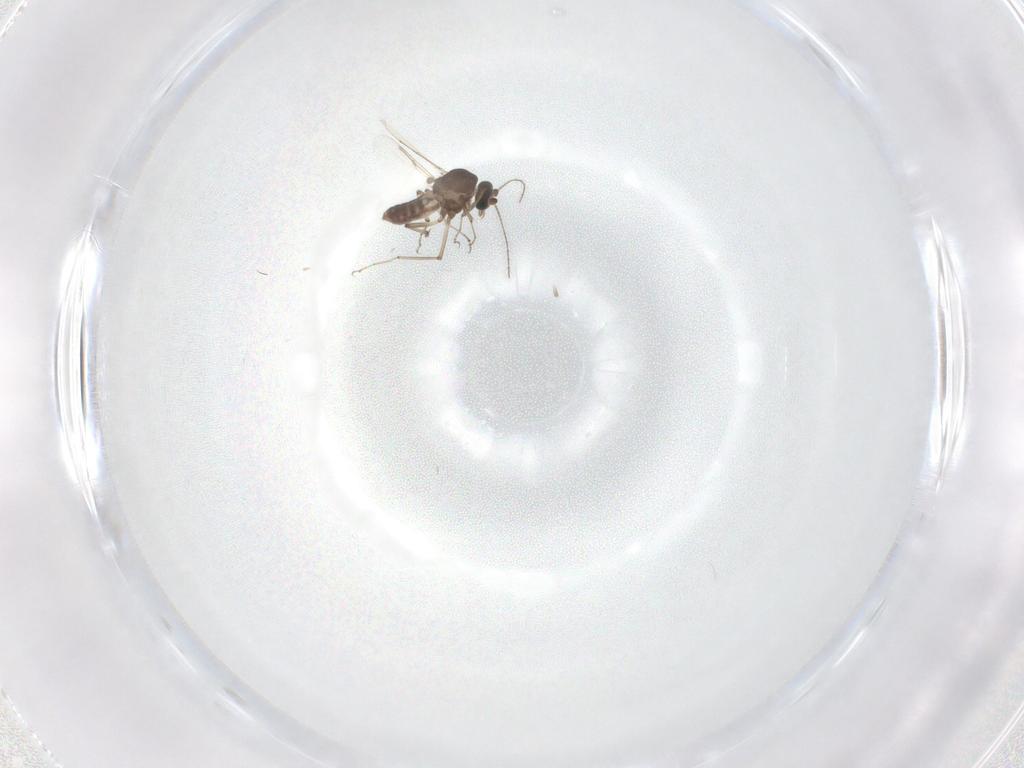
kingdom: Animalia
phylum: Arthropoda
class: Insecta
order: Diptera
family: Ceratopogonidae
